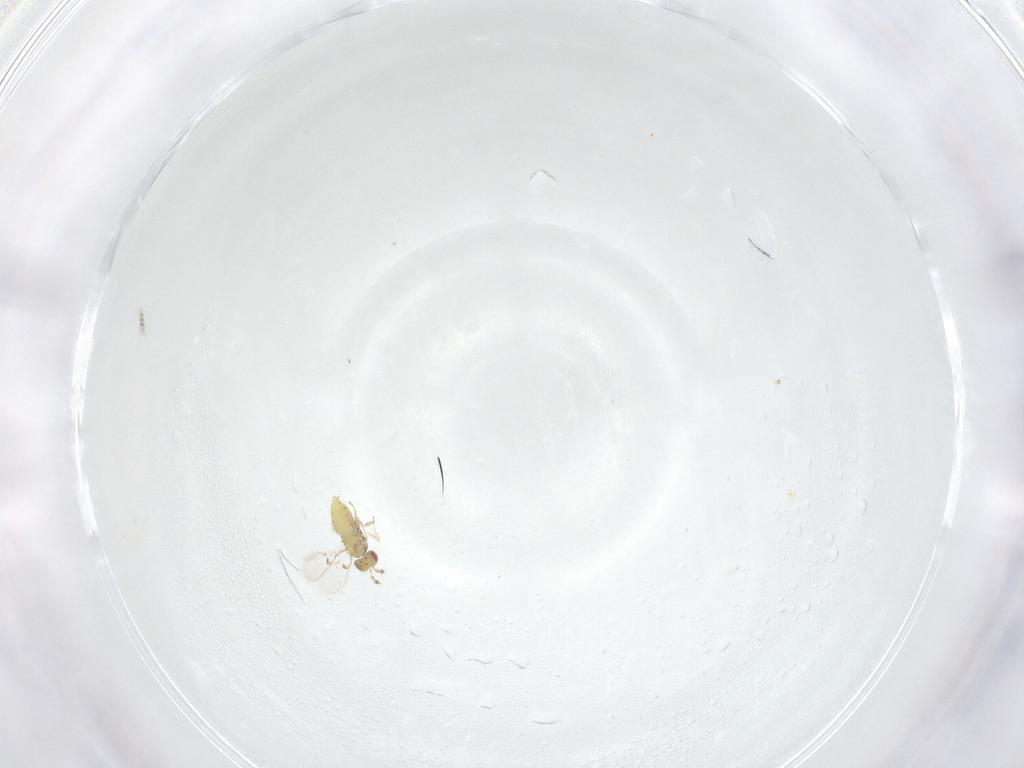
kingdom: Animalia
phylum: Arthropoda
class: Insecta
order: Hymenoptera
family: Trichogrammatidae
